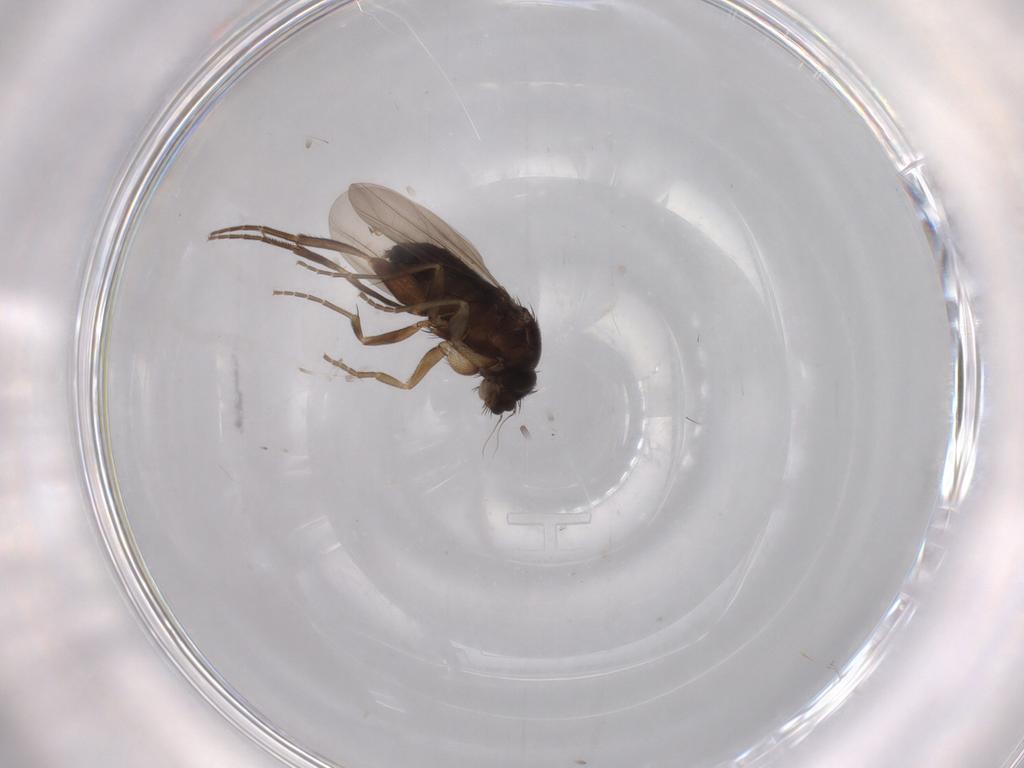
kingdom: Animalia
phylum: Arthropoda
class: Insecta
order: Diptera
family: Phoridae
